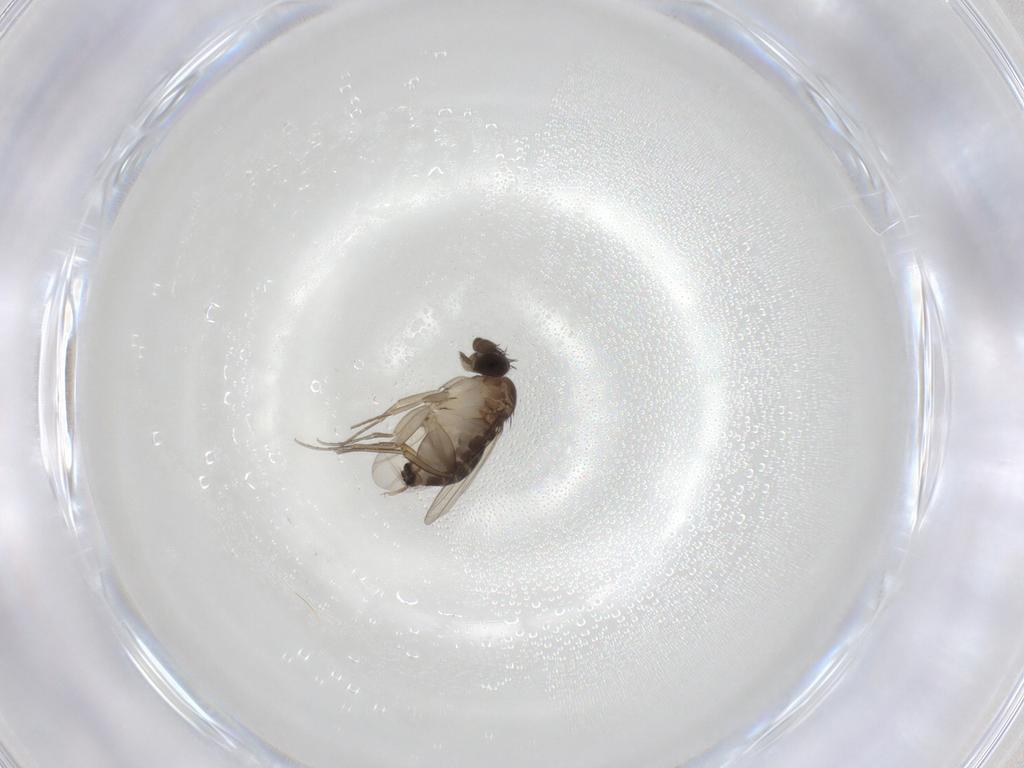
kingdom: Animalia
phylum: Arthropoda
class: Insecta
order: Diptera
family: Phoridae
